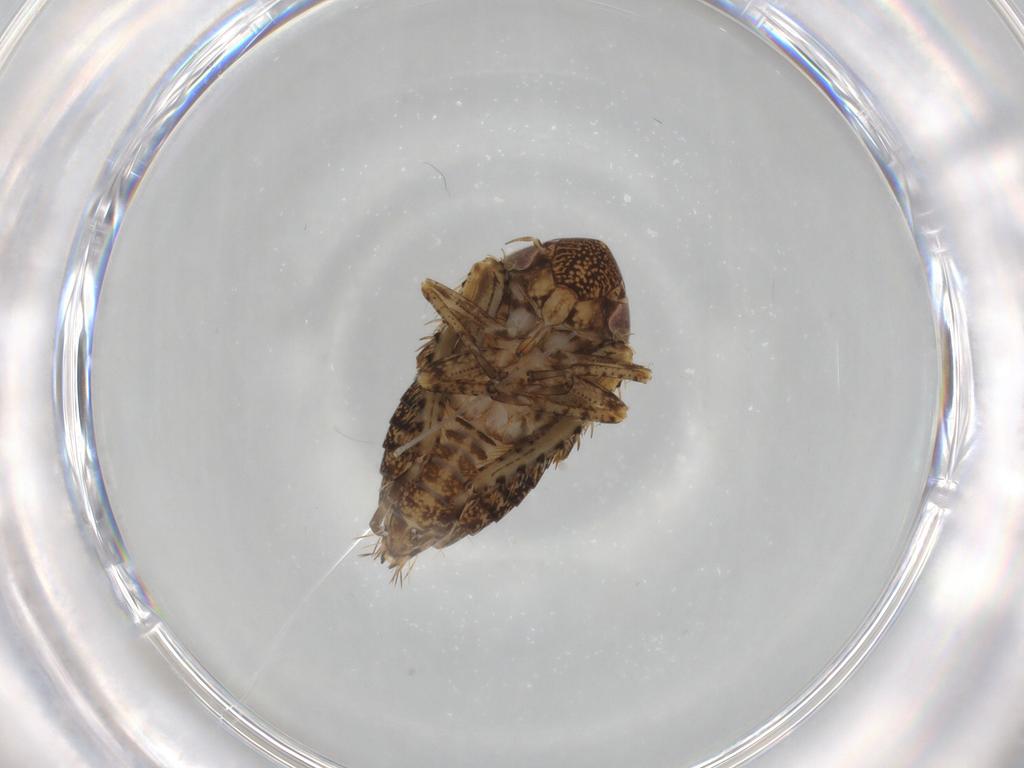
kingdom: Animalia
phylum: Arthropoda
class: Insecta
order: Hemiptera
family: Cicadellidae
